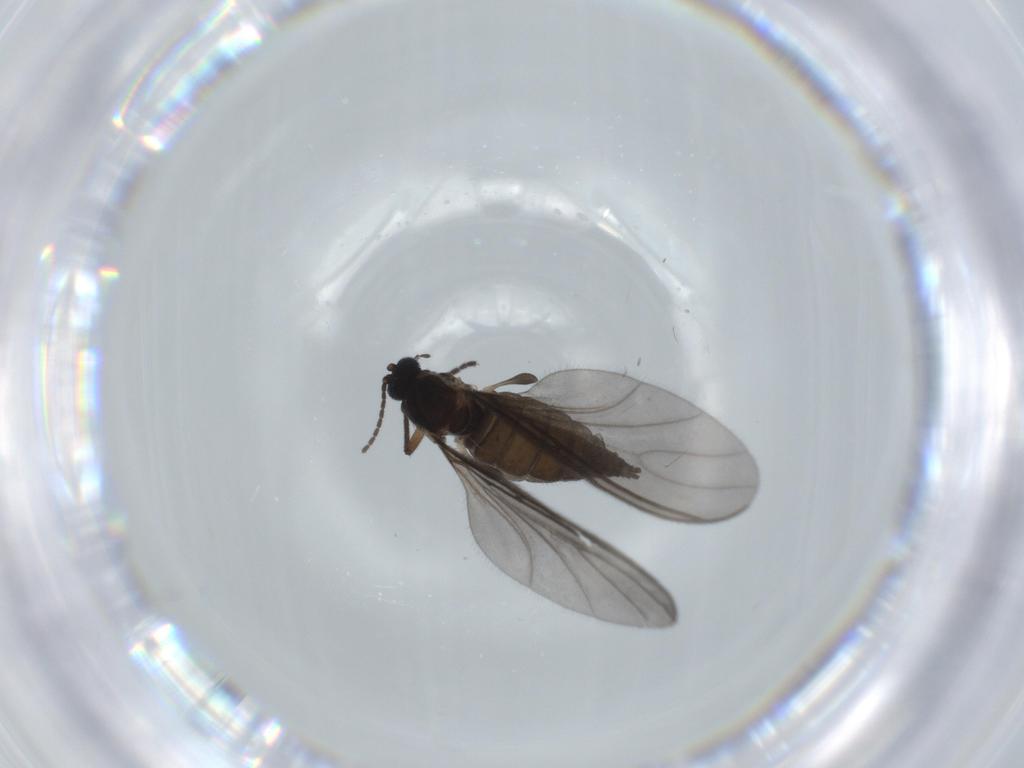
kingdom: Animalia
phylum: Arthropoda
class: Insecta
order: Diptera
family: Sciaridae
